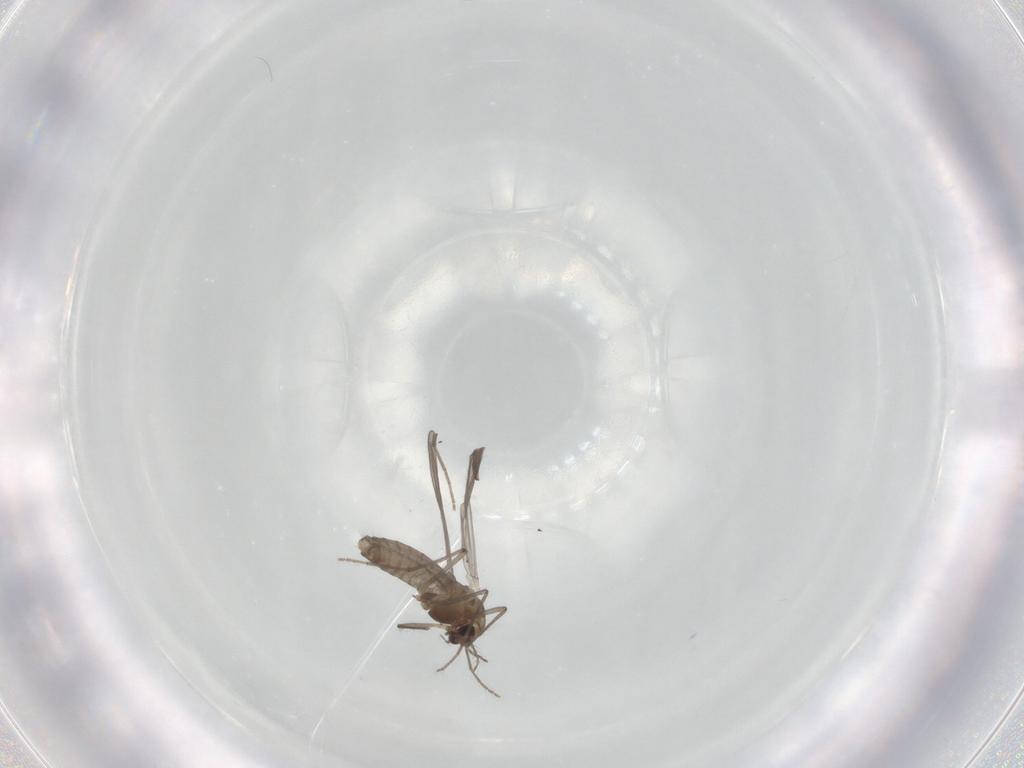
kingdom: Animalia
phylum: Arthropoda
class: Insecta
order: Diptera
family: Chironomidae
